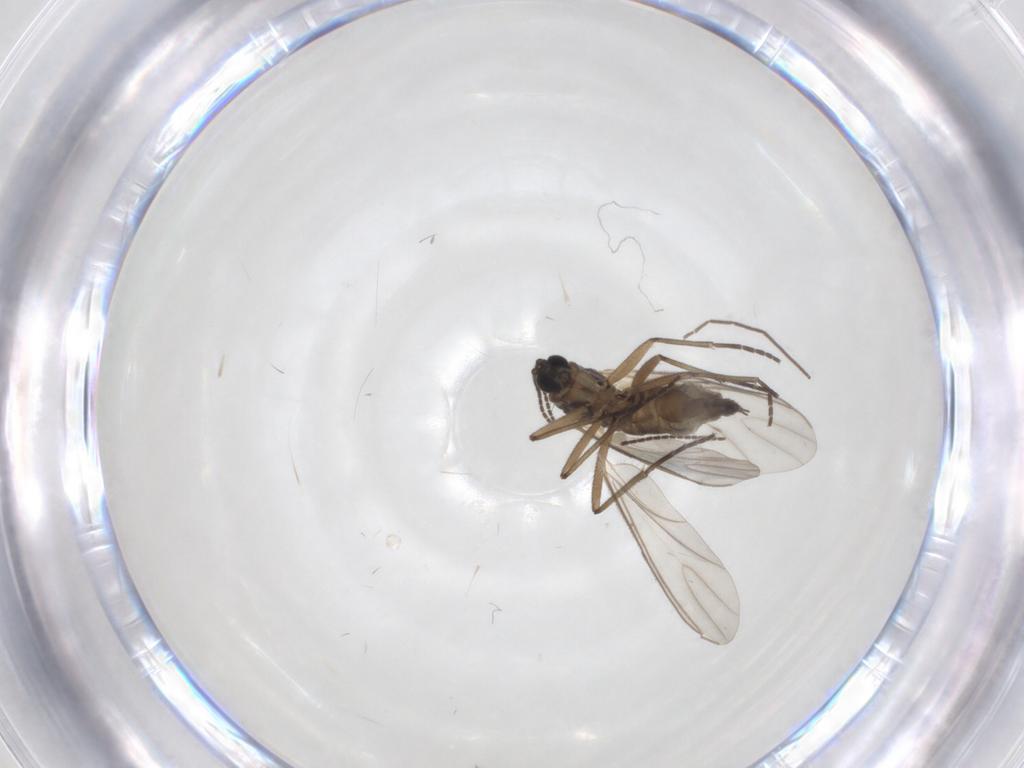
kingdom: Animalia
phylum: Arthropoda
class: Insecta
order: Diptera
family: Chironomidae
